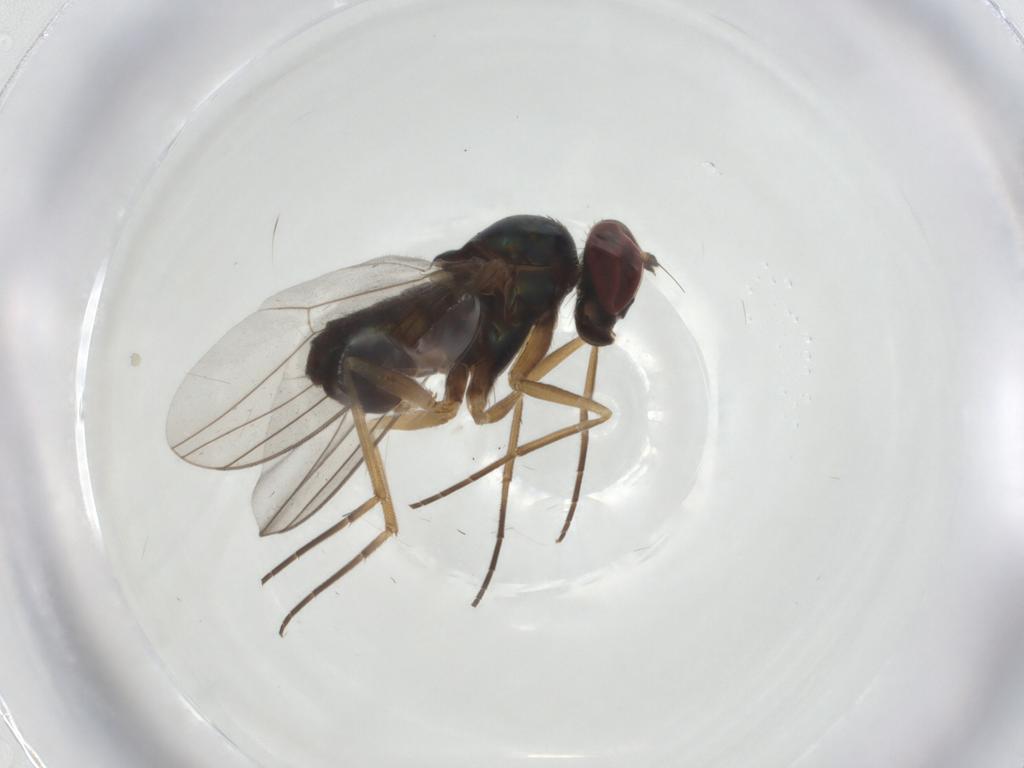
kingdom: Animalia
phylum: Arthropoda
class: Insecta
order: Diptera
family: Dolichopodidae
